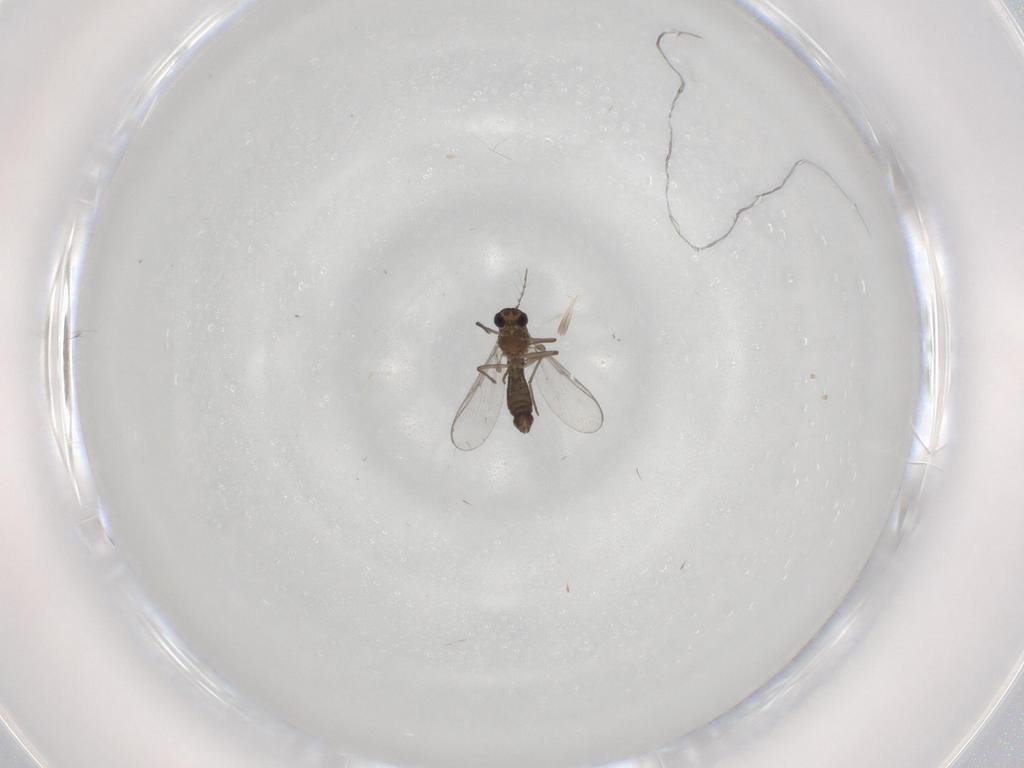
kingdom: Animalia
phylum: Arthropoda
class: Insecta
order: Diptera
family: Chironomidae
